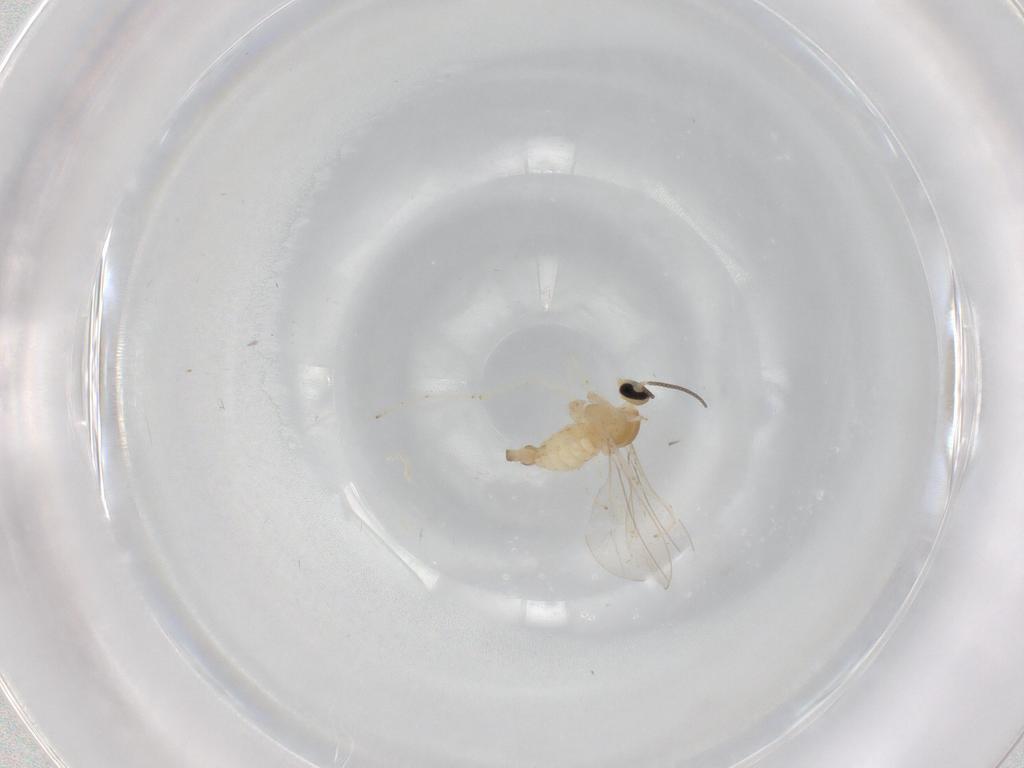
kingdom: Animalia
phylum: Arthropoda
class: Insecta
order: Diptera
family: Cecidomyiidae
